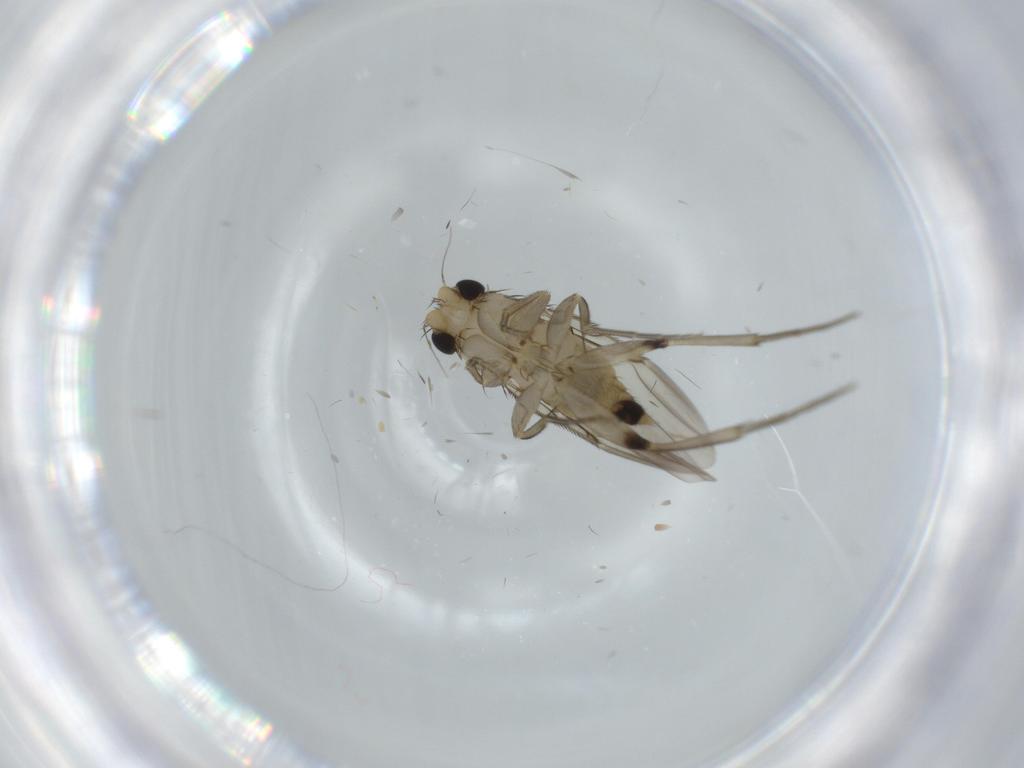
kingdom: Animalia
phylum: Arthropoda
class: Insecta
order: Diptera
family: Phoridae
